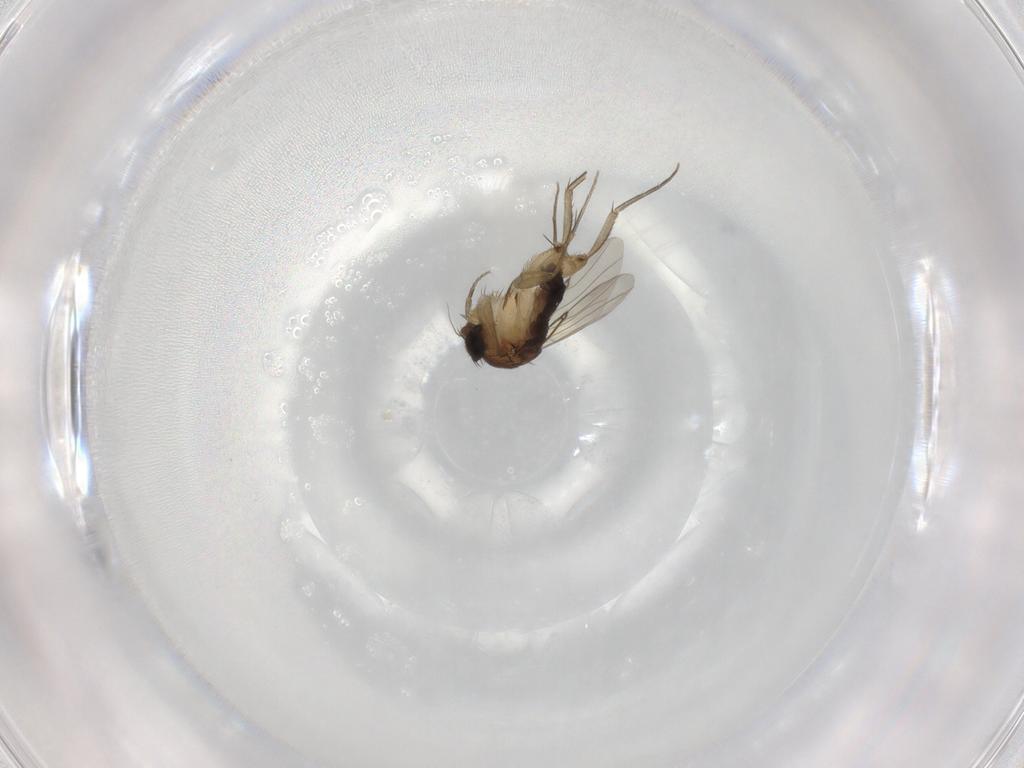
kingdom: Animalia
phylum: Arthropoda
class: Insecta
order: Diptera
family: Phoridae
